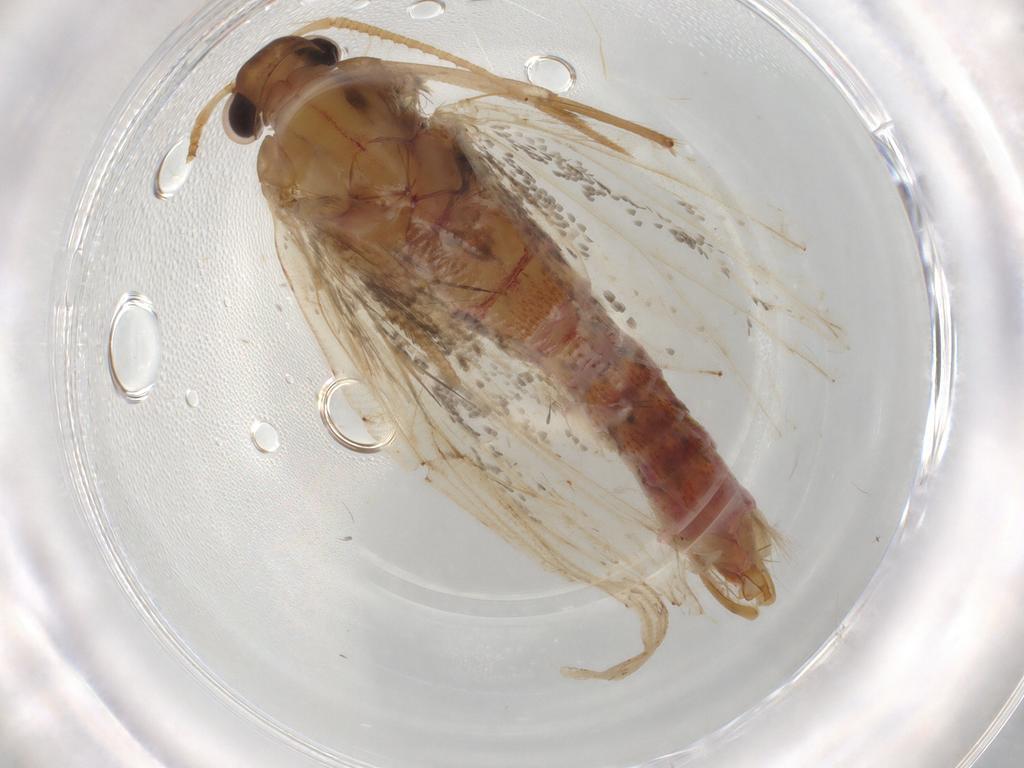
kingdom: Animalia
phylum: Arthropoda
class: Insecta
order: Lepidoptera
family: Lecithoceridae
